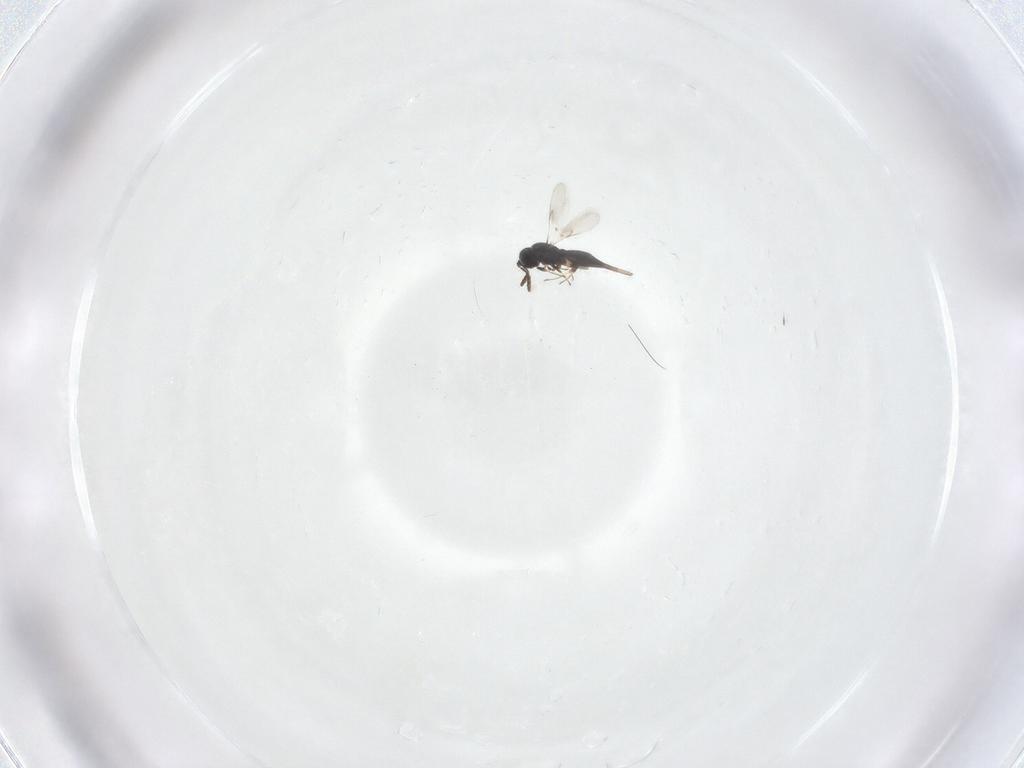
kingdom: Animalia
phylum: Arthropoda
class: Insecta
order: Hymenoptera
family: Scelionidae
